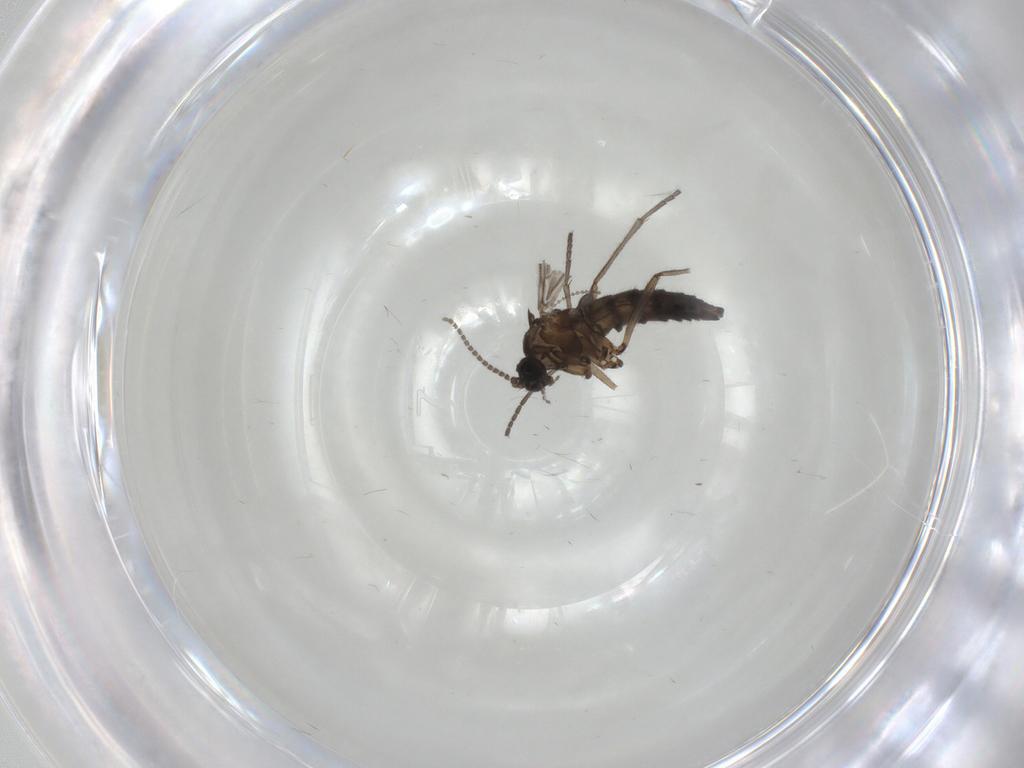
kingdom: Animalia
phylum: Arthropoda
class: Insecta
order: Diptera
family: Sciaridae
